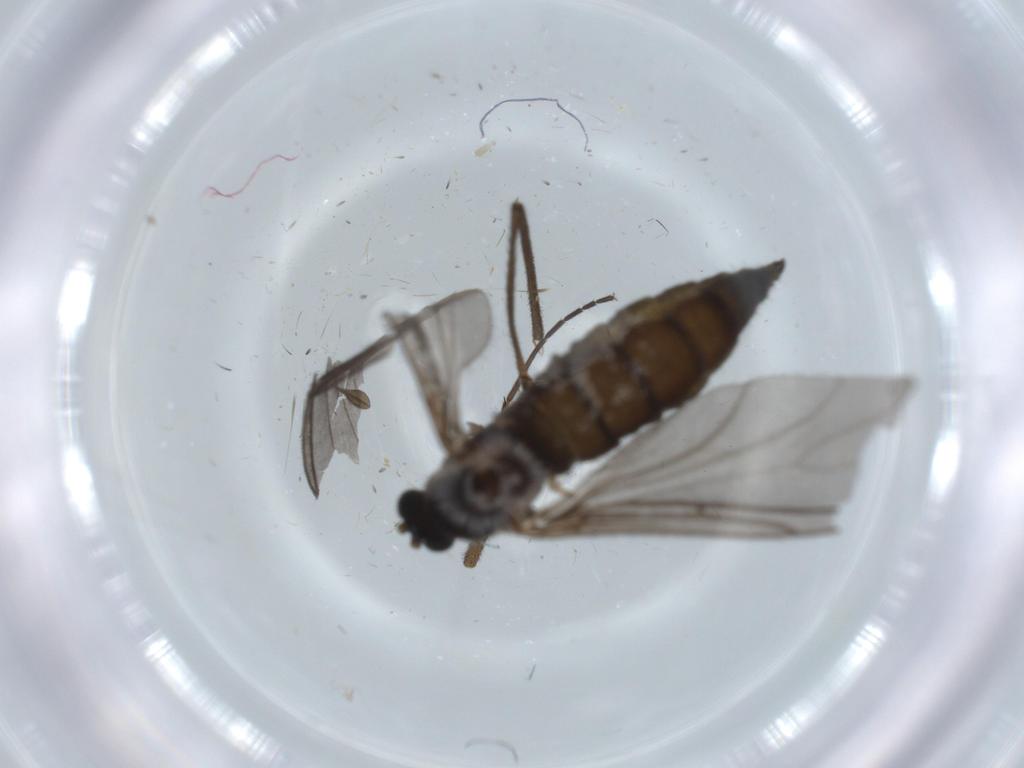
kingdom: Animalia
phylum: Arthropoda
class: Insecta
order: Diptera
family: Sciaridae
